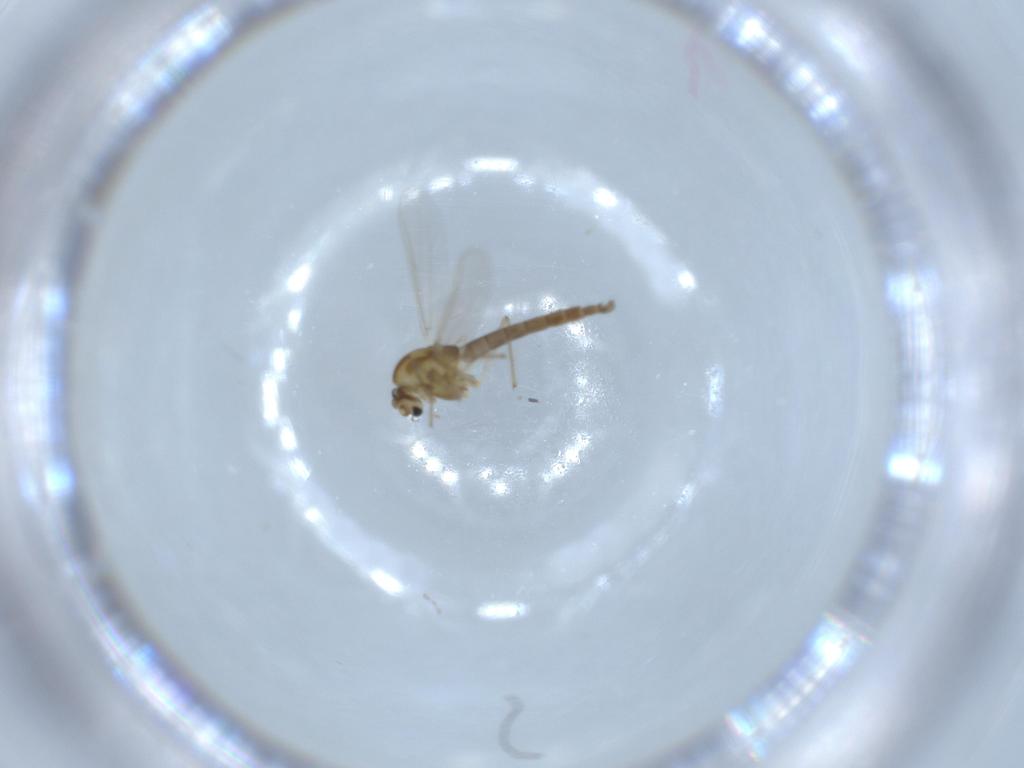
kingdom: Animalia
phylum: Arthropoda
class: Insecta
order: Diptera
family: Chironomidae
